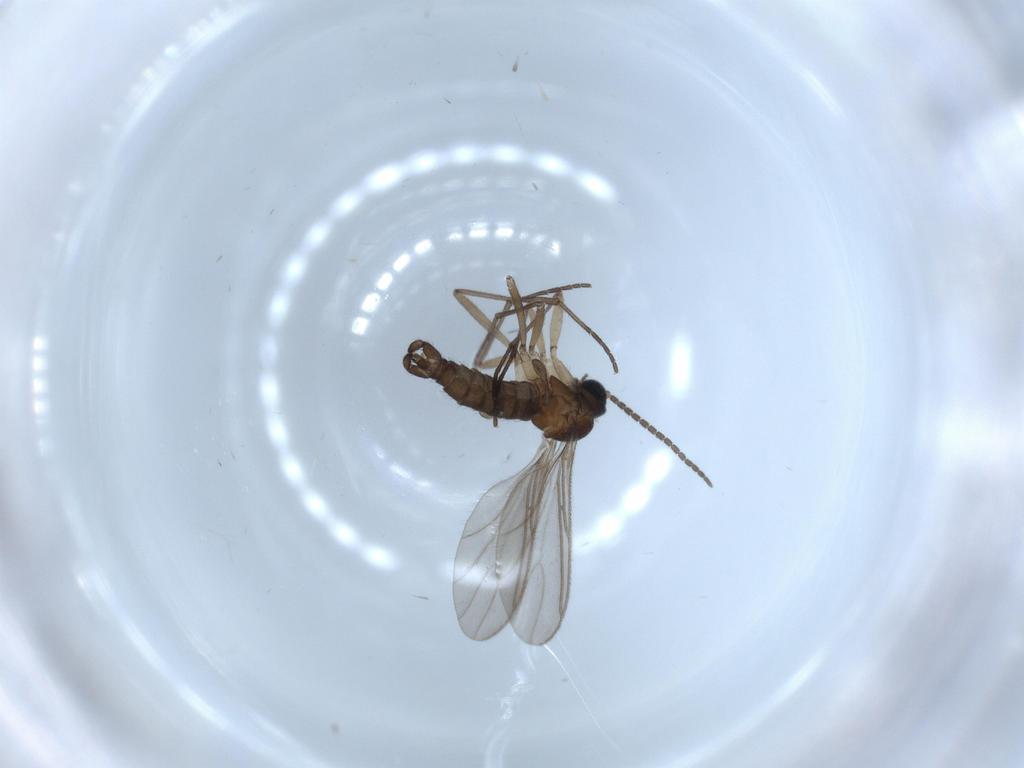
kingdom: Animalia
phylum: Arthropoda
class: Insecta
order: Diptera
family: Sciaridae
